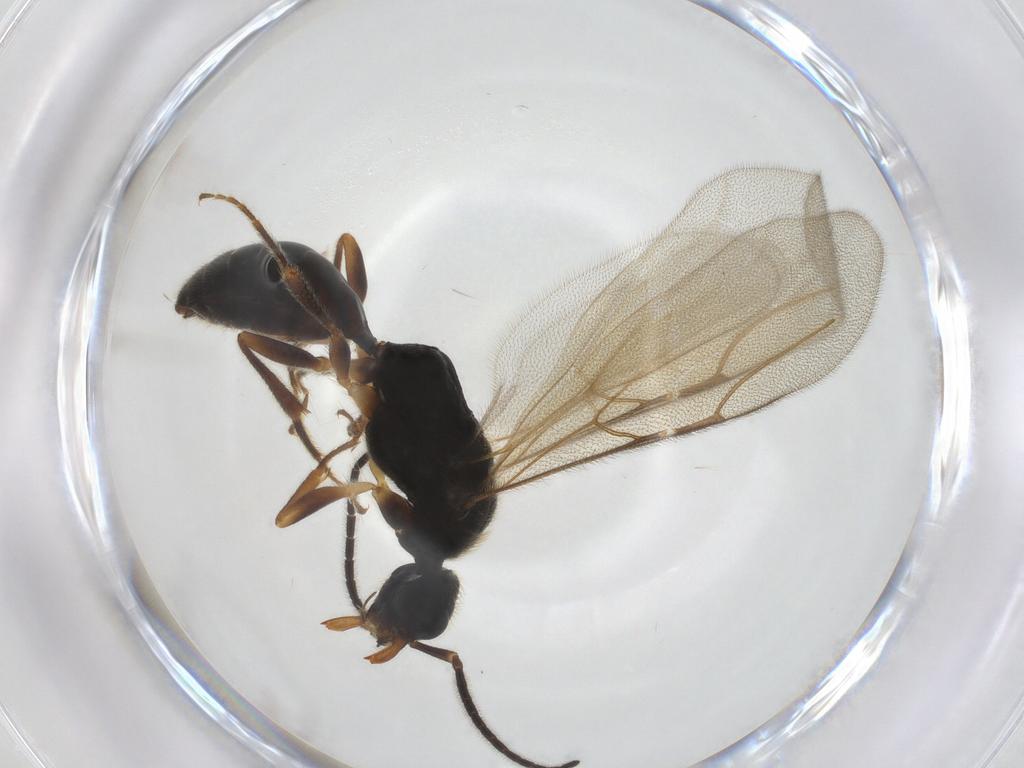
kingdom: Animalia
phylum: Arthropoda
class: Insecta
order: Hymenoptera
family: Bethylidae
